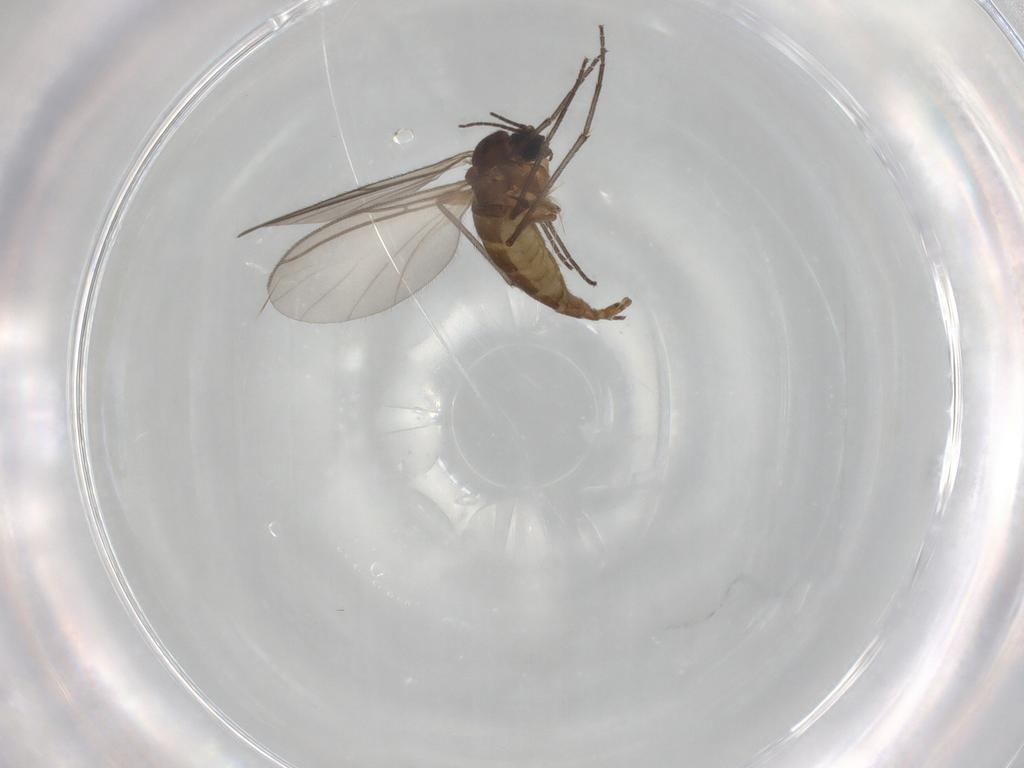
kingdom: Animalia
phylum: Arthropoda
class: Insecta
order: Diptera
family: Sciaridae
